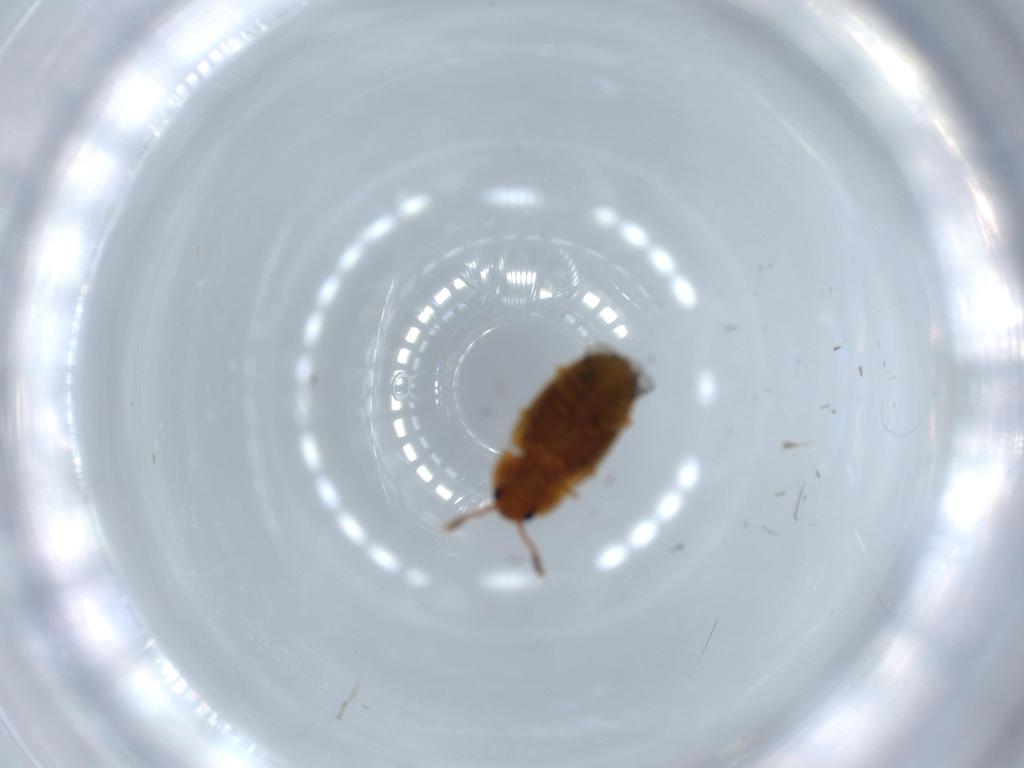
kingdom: Animalia
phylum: Arthropoda
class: Insecta
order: Coleoptera
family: Erotylidae
